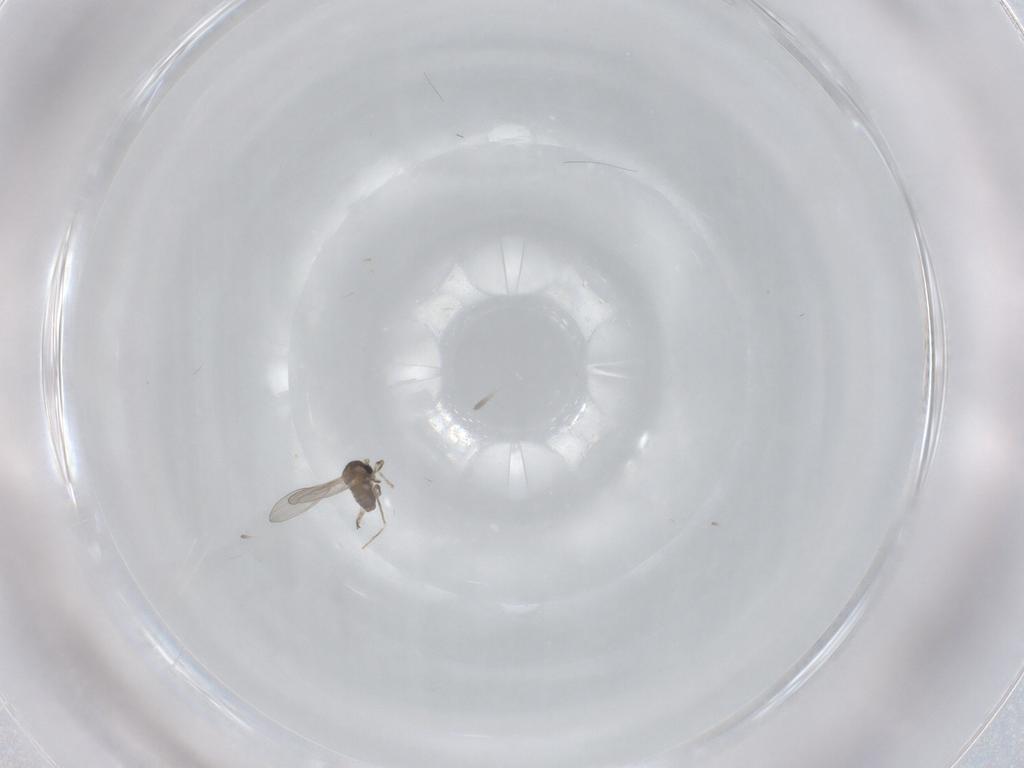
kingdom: Animalia
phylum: Arthropoda
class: Insecta
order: Diptera
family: Cecidomyiidae
